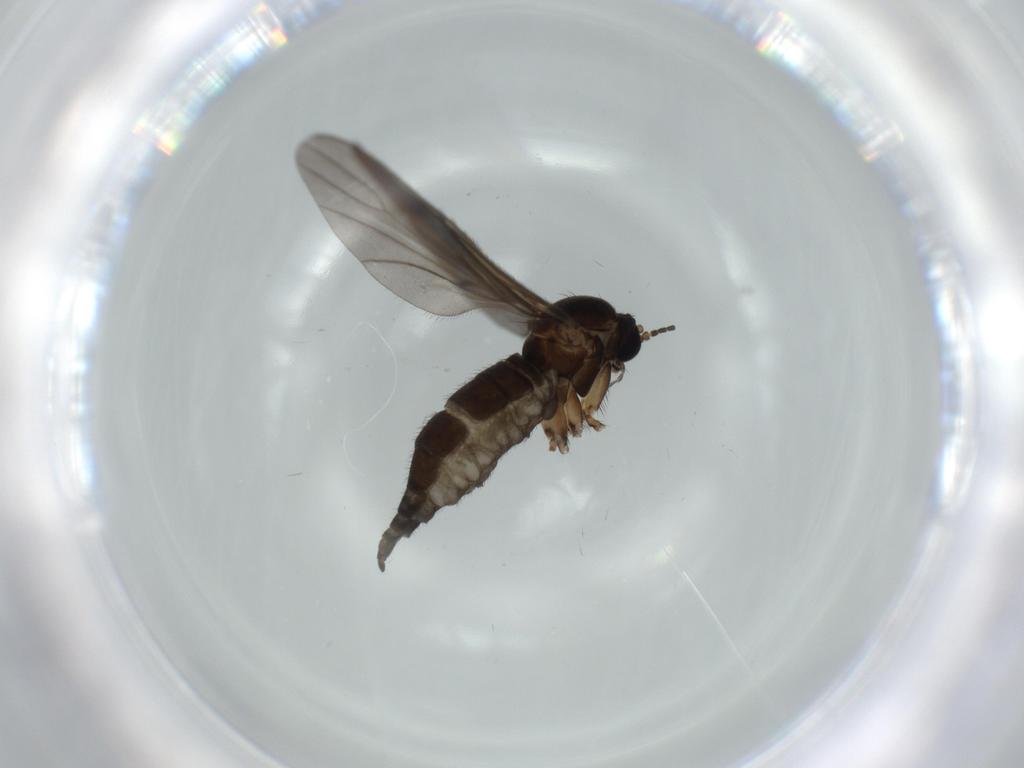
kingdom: Animalia
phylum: Arthropoda
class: Insecta
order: Diptera
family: Sciaridae
